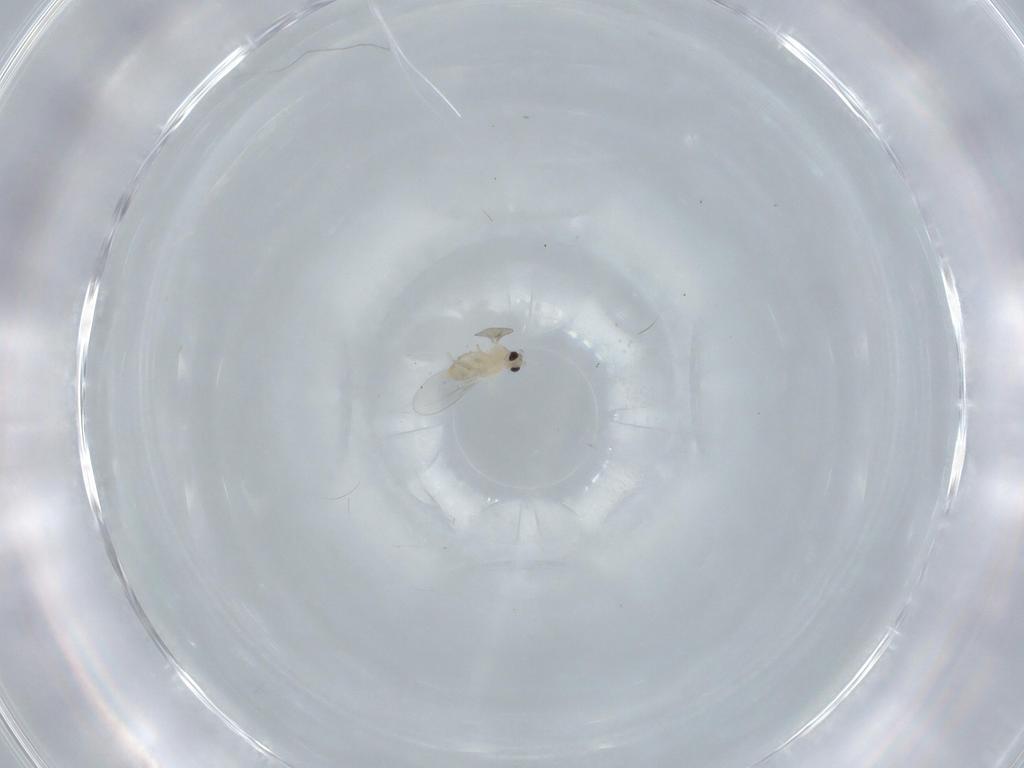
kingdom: Animalia
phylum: Arthropoda
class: Insecta
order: Diptera
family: Cecidomyiidae
